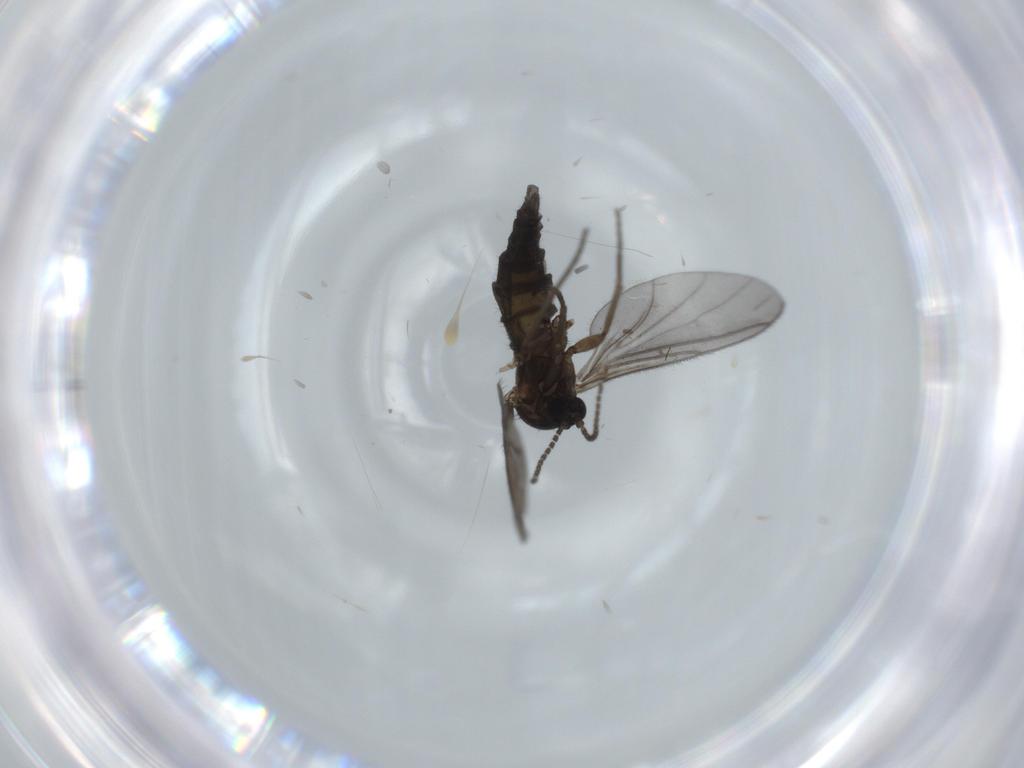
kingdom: Animalia
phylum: Arthropoda
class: Insecta
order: Diptera
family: Sciaridae
